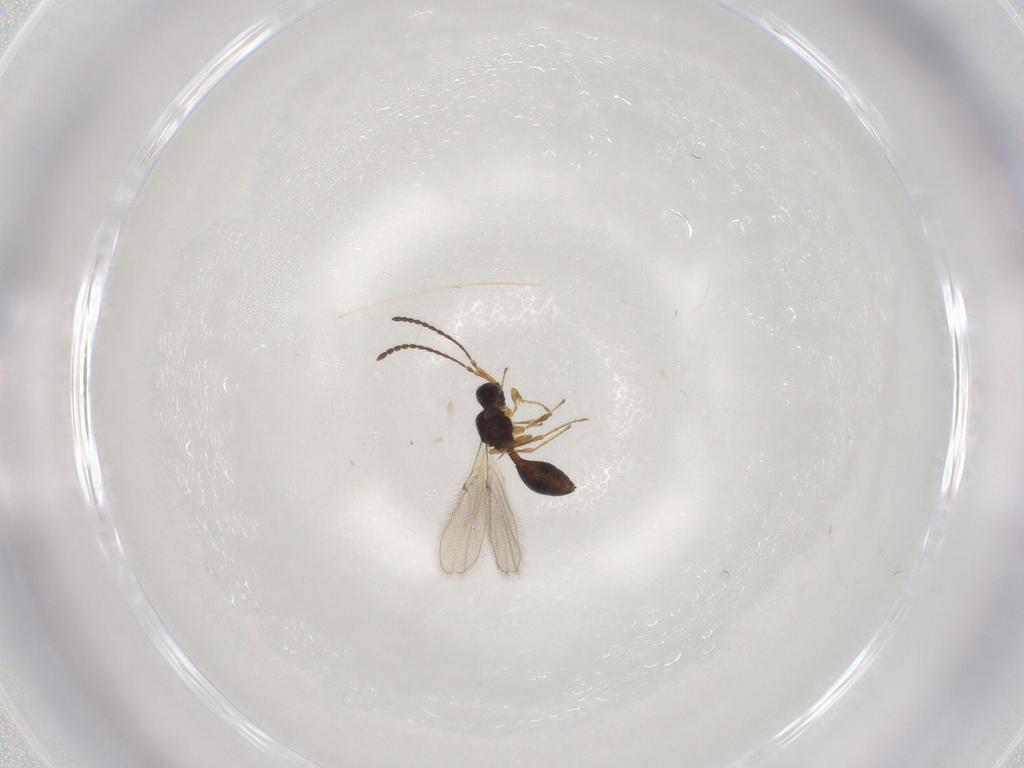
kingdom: Animalia
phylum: Arthropoda
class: Insecta
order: Hymenoptera
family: Diapriidae
